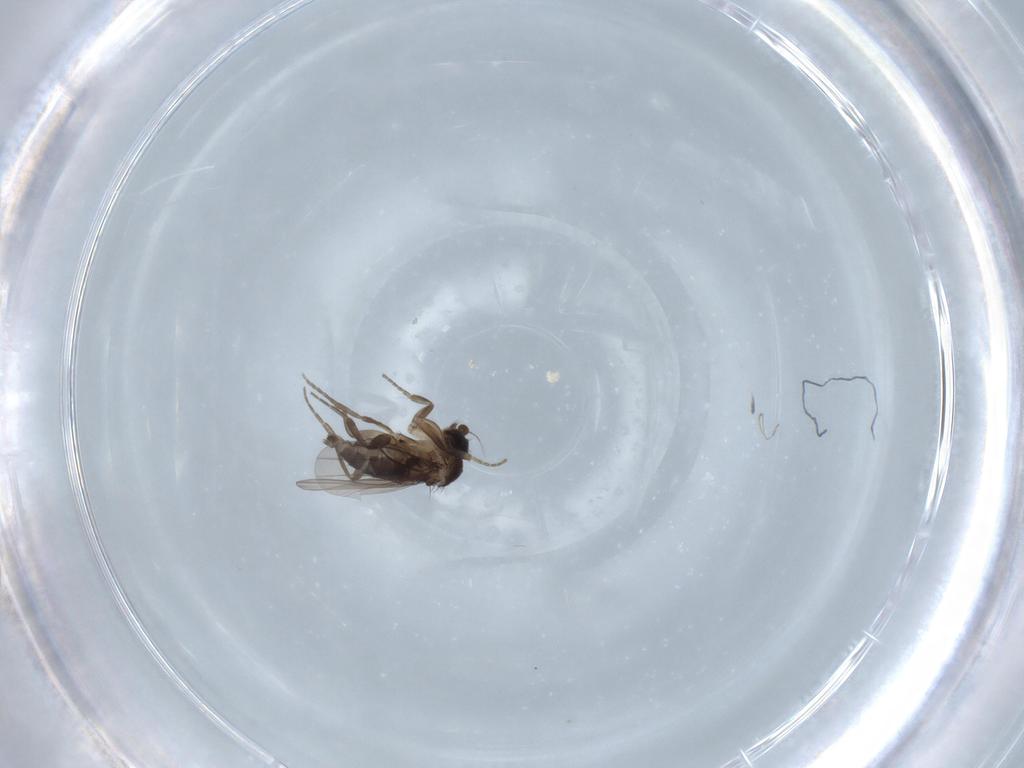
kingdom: Animalia
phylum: Arthropoda
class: Insecta
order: Diptera
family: Phoridae
